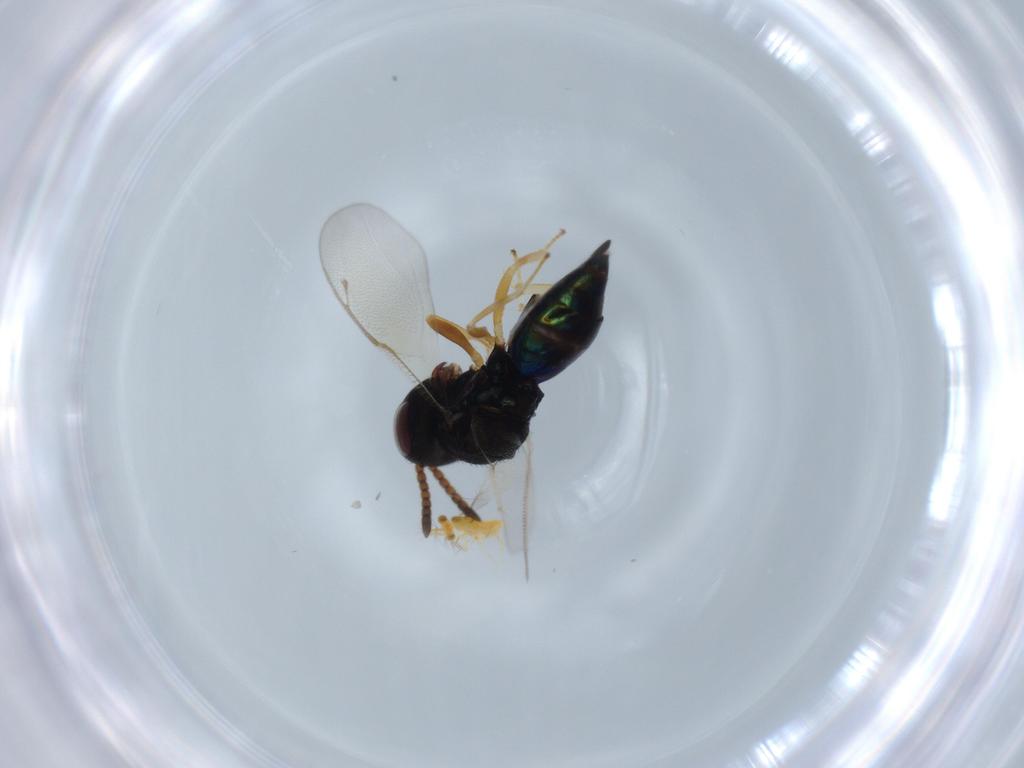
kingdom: Animalia
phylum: Arthropoda
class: Insecta
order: Hymenoptera
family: Pteromalidae
